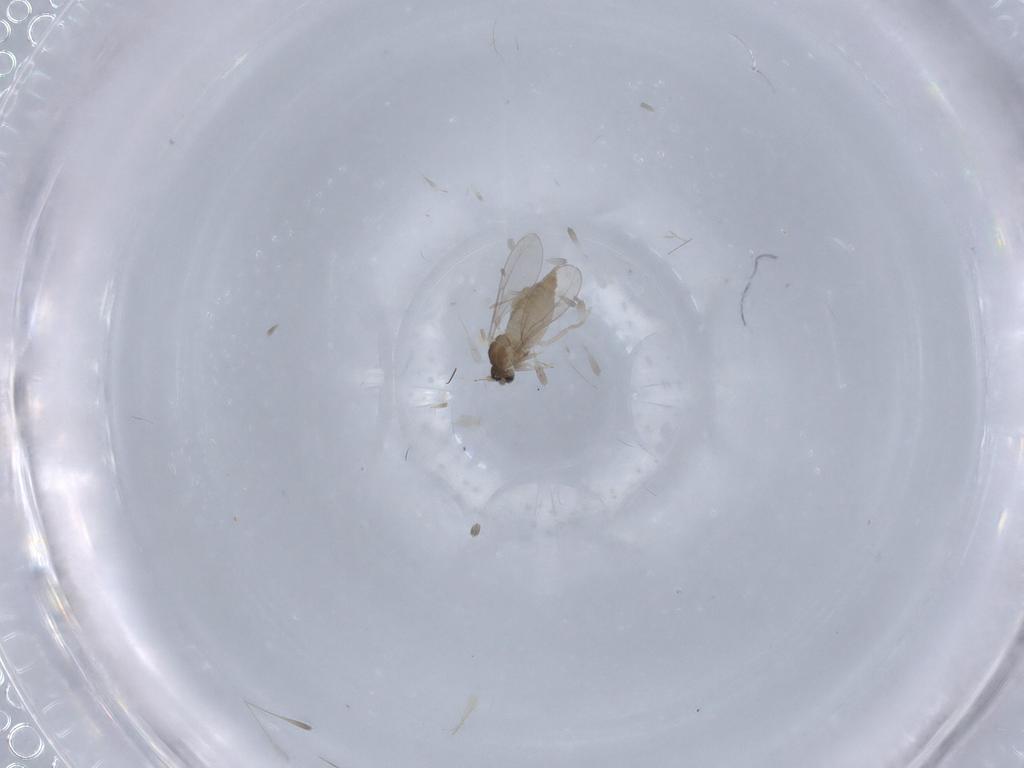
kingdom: Animalia
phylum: Arthropoda
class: Insecta
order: Diptera
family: Cecidomyiidae
